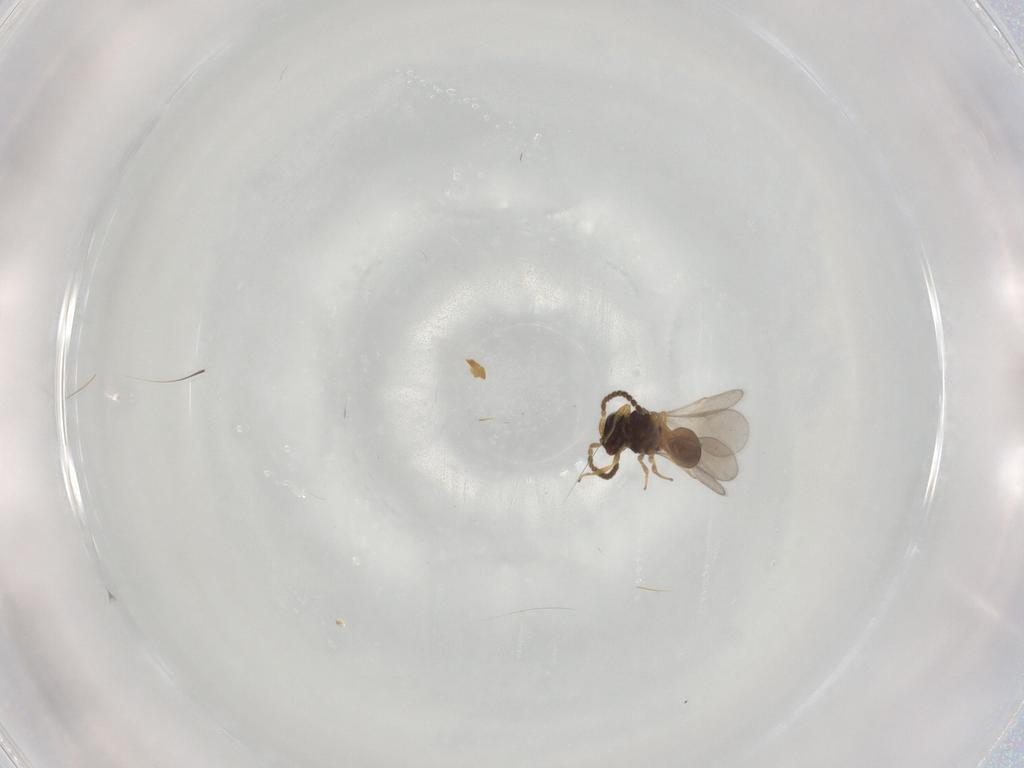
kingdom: Animalia
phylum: Arthropoda
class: Insecta
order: Hymenoptera
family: Scelionidae
